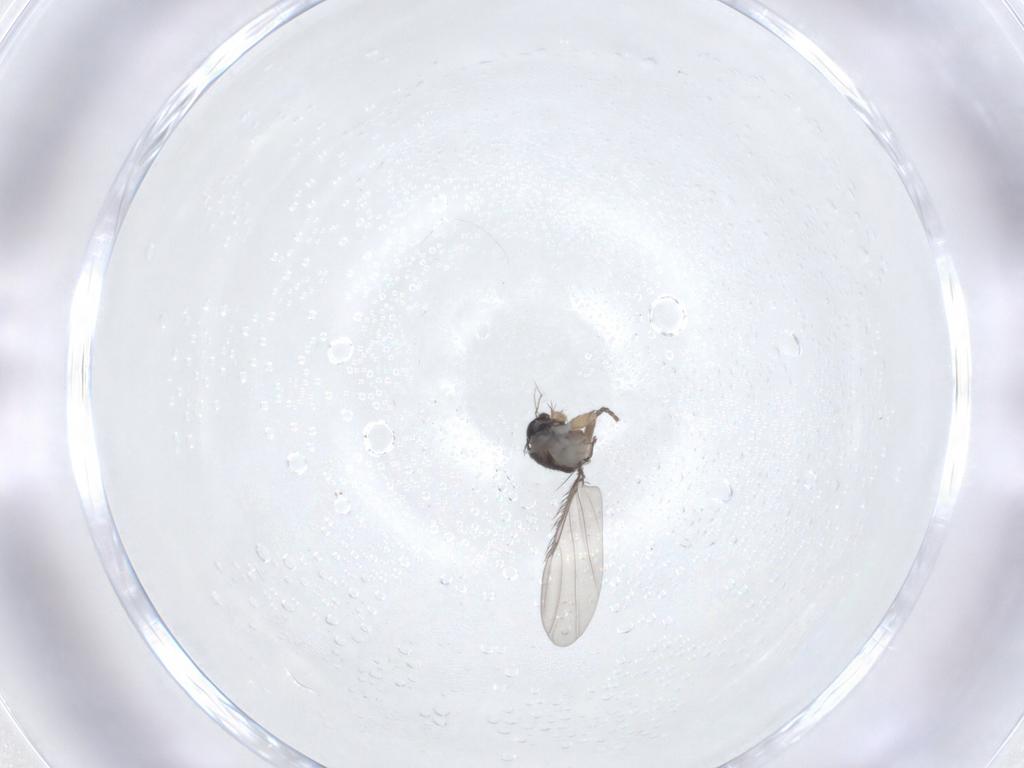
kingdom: Animalia
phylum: Arthropoda
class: Insecta
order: Diptera
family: Phoridae
